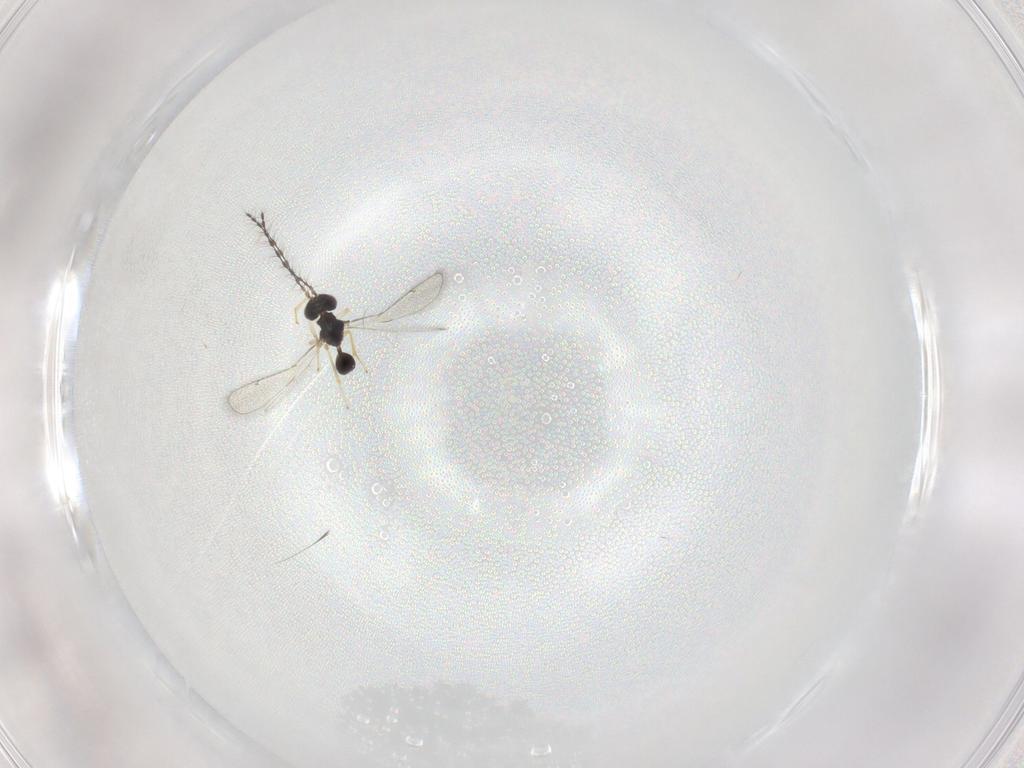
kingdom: Animalia
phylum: Arthropoda
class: Insecta
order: Hymenoptera
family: Diparidae
